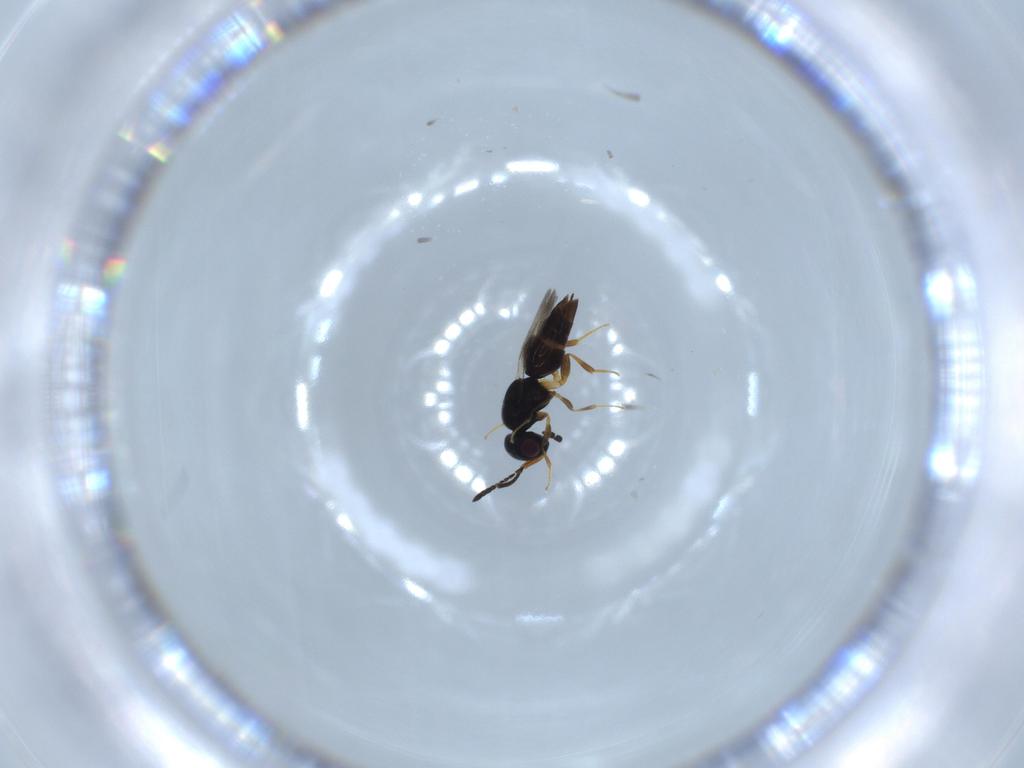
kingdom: Animalia
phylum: Arthropoda
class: Insecta
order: Hymenoptera
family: Ceraphronidae
